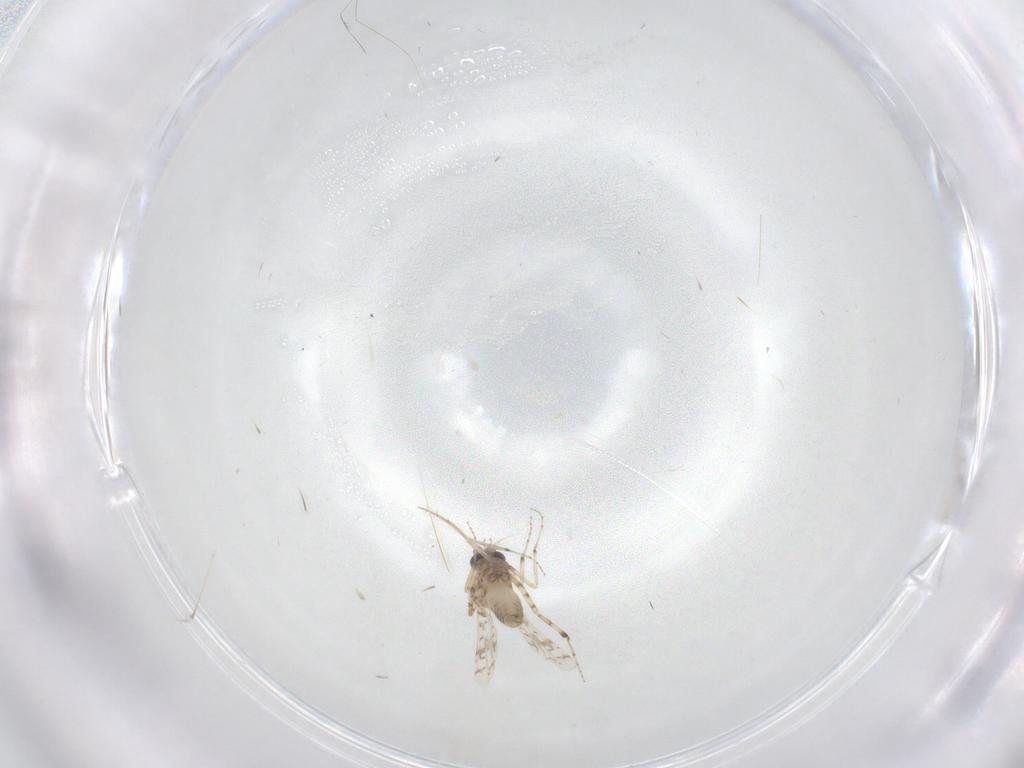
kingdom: Animalia
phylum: Arthropoda
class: Insecta
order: Diptera
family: Ceratopogonidae
